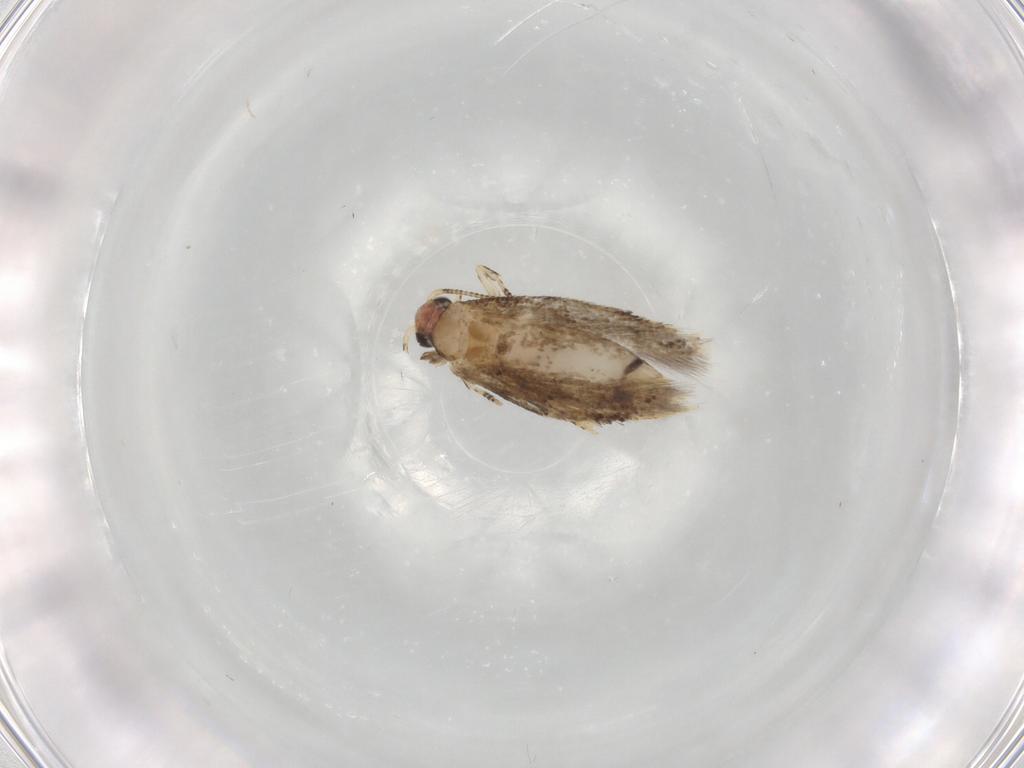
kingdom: Animalia
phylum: Arthropoda
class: Insecta
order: Lepidoptera
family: Tineidae
